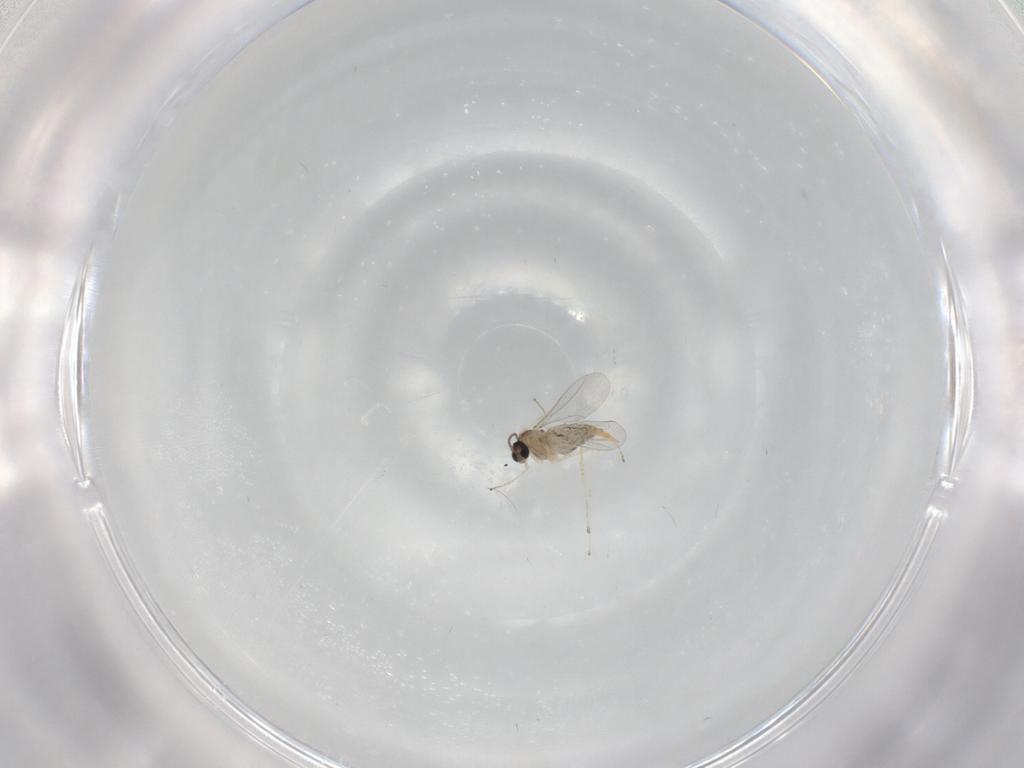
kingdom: Animalia
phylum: Arthropoda
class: Insecta
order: Diptera
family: Cecidomyiidae
